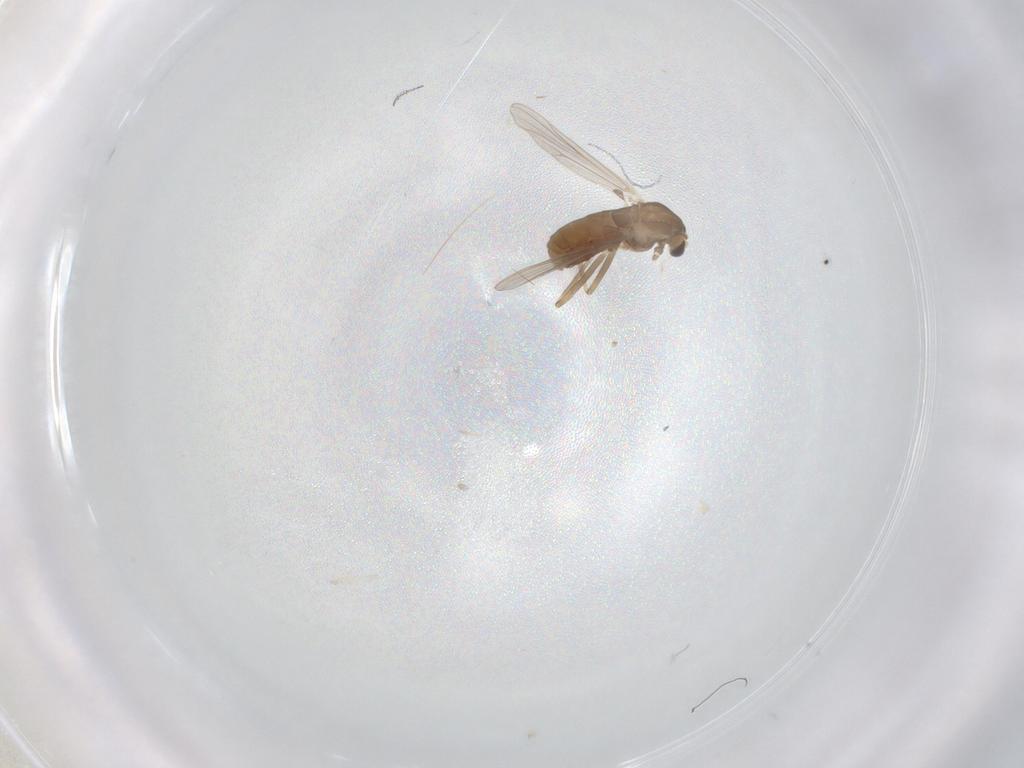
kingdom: Animalia
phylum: Arthropoda
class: Insecta
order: Diptera
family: Chironomidae
